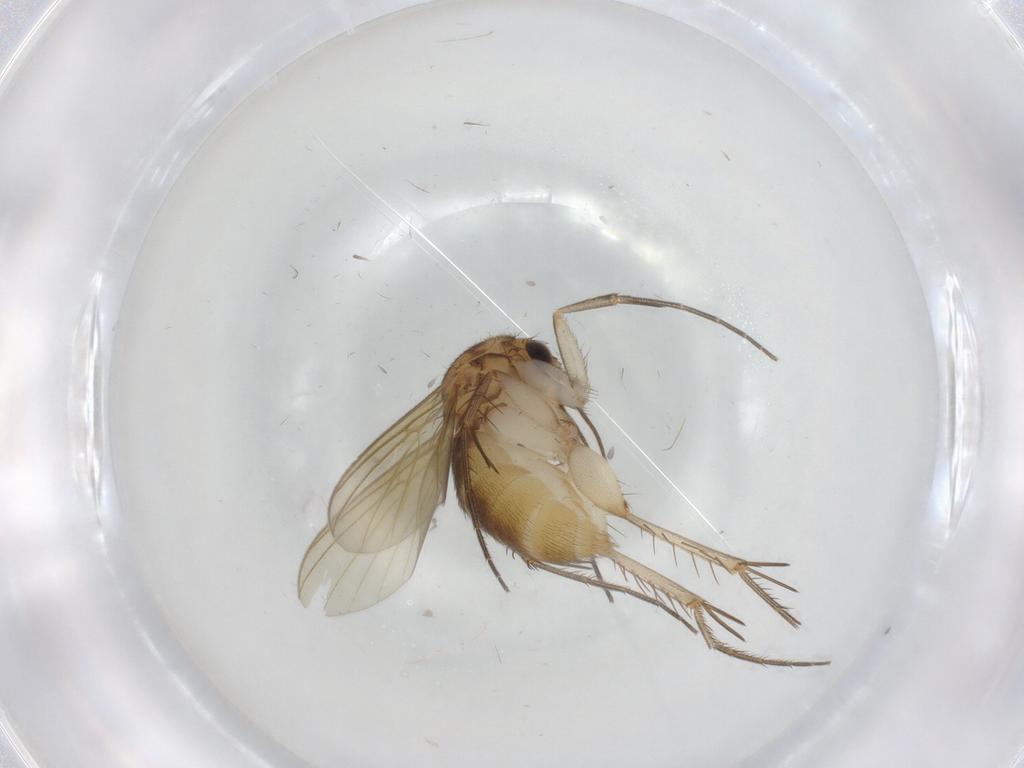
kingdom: Animalia
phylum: Arthropoda
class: Insecta
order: Diptera
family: Mycetophilidae
